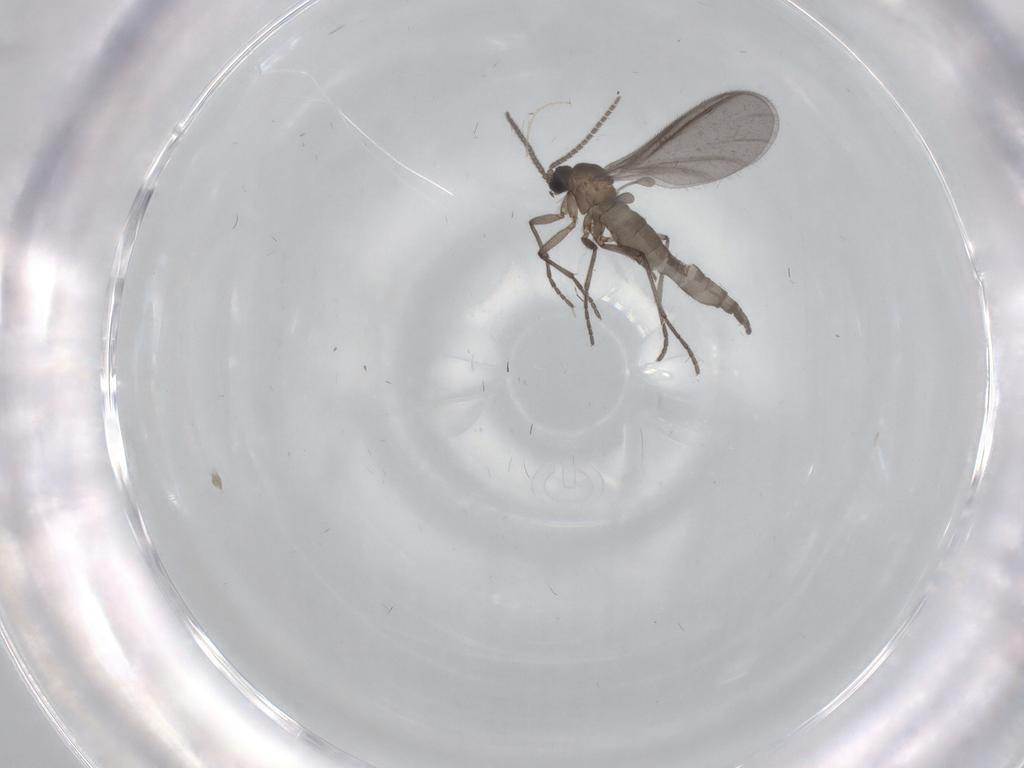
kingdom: Animalia
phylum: Arthropoda
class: Insecta
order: Diptera
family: Sciaridae
